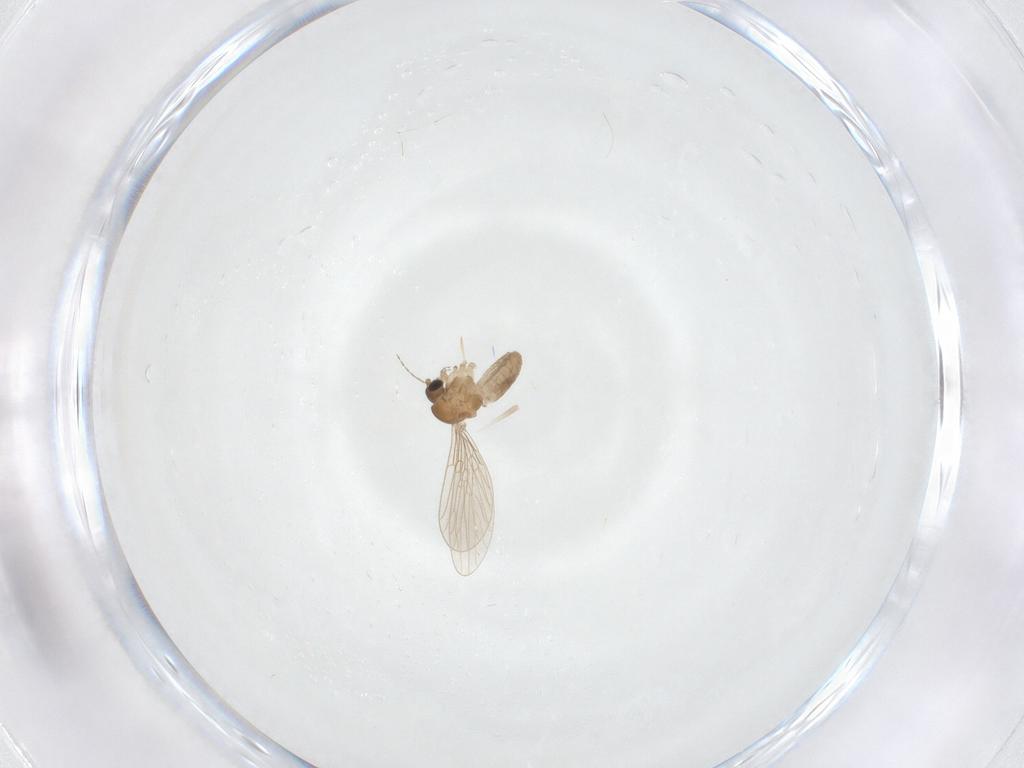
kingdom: Animalia
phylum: Arthropoda
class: Insecta
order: Diptera
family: Psychodidae
